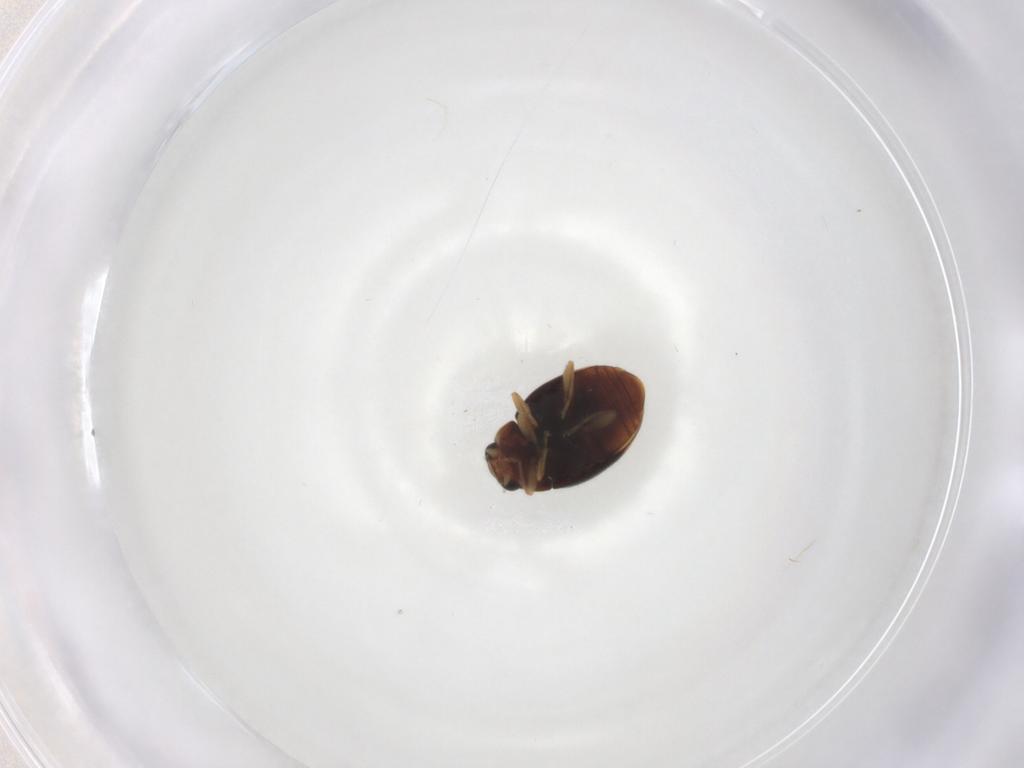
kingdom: Animalia
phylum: Arthropoda
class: Insecta
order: Coleoptera
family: Coccinellidae
